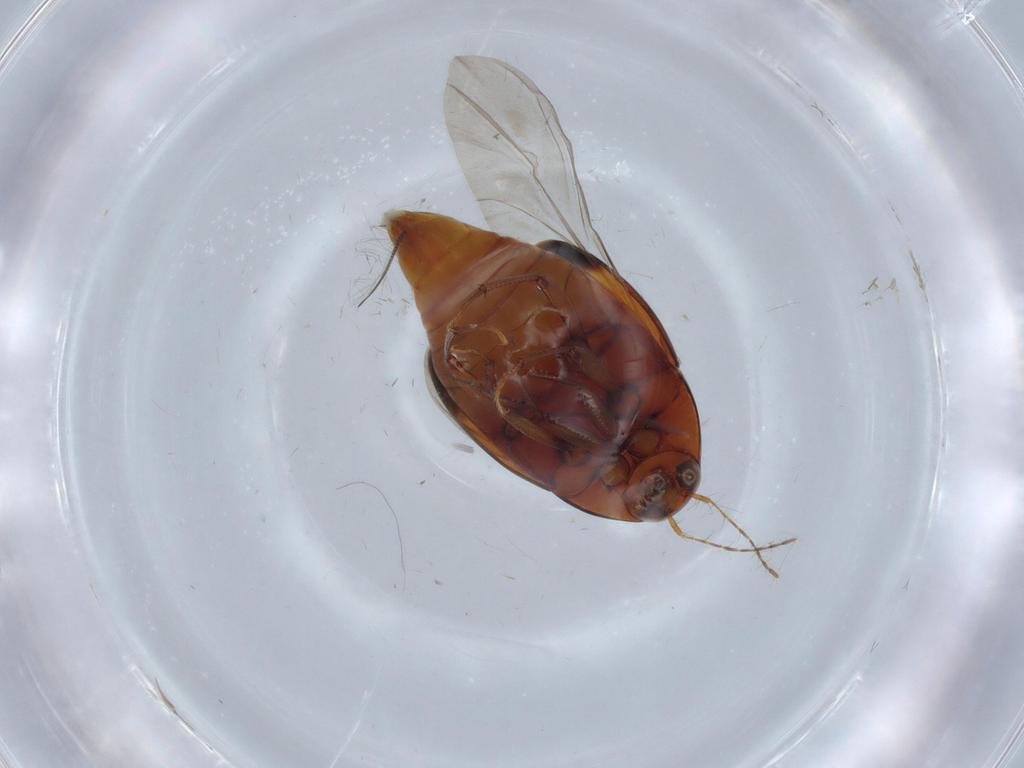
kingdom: Animalia
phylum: Arthropoda
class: Insecta
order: Coleoptera
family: Staphylinidae
